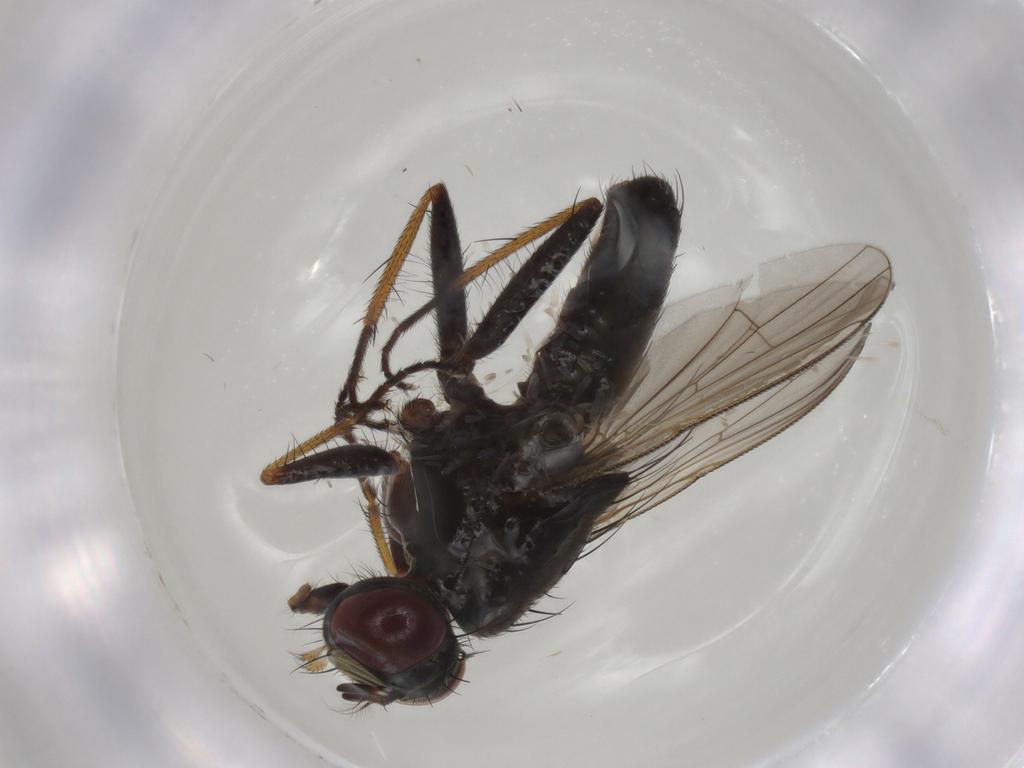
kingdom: Animalia
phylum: Arthropoda
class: Insecta
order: Diptera
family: Muscidae
